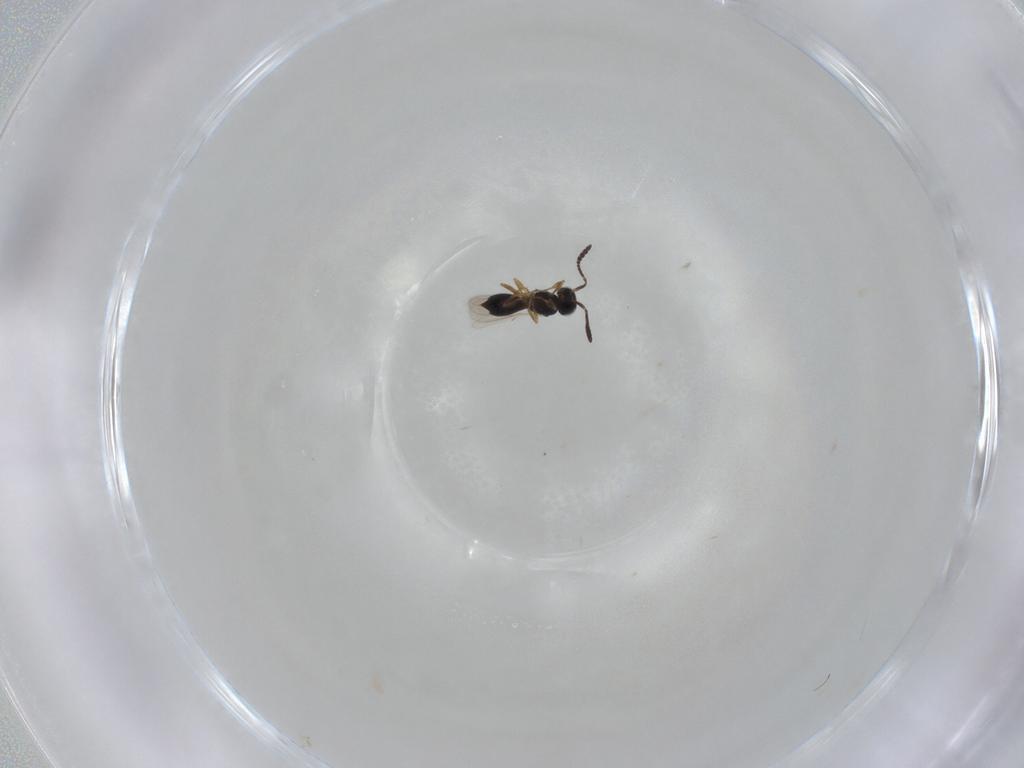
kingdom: Animalia
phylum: Arthropoda
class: Insecta
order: Hymenoptera
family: Scelionidae
